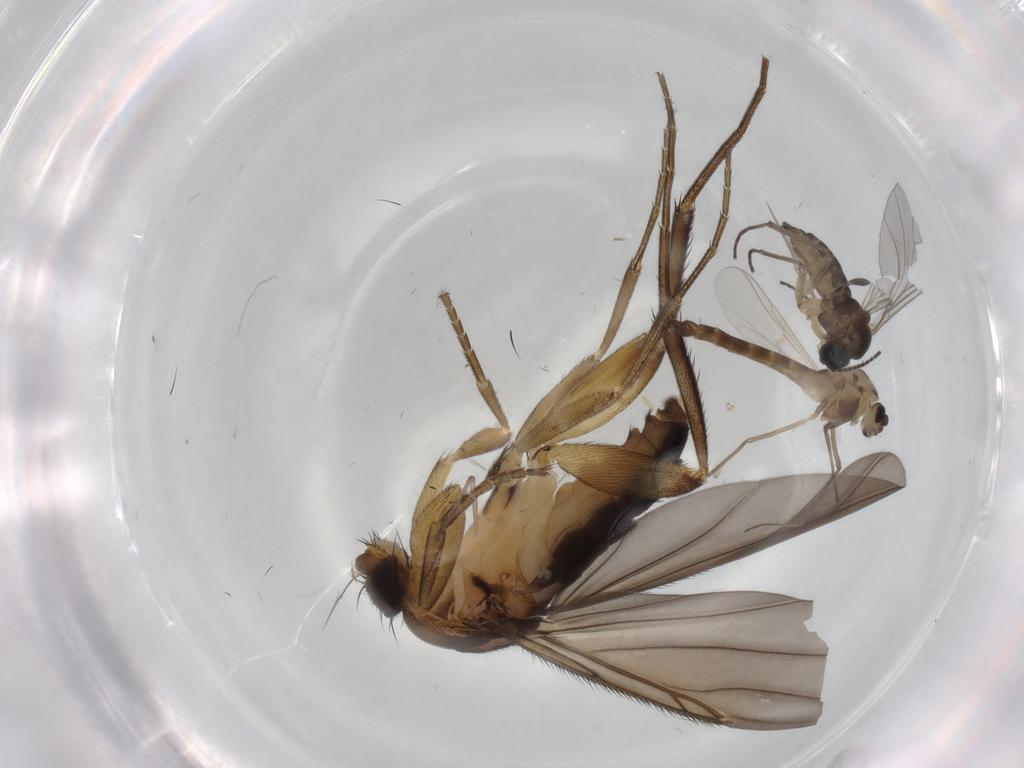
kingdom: Animalia
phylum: Arthropoda
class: Insecta
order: Diptera
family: Sciaridae
